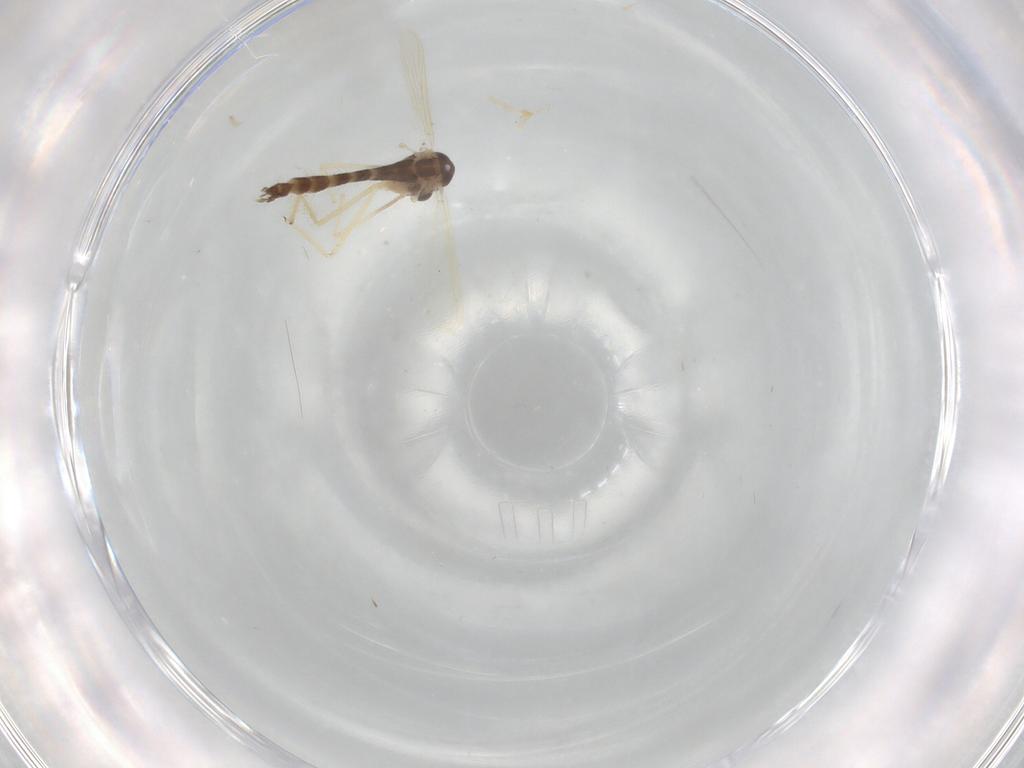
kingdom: Animalia
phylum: Arthropoda
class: Insecta
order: Diptera
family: Chironomidae
